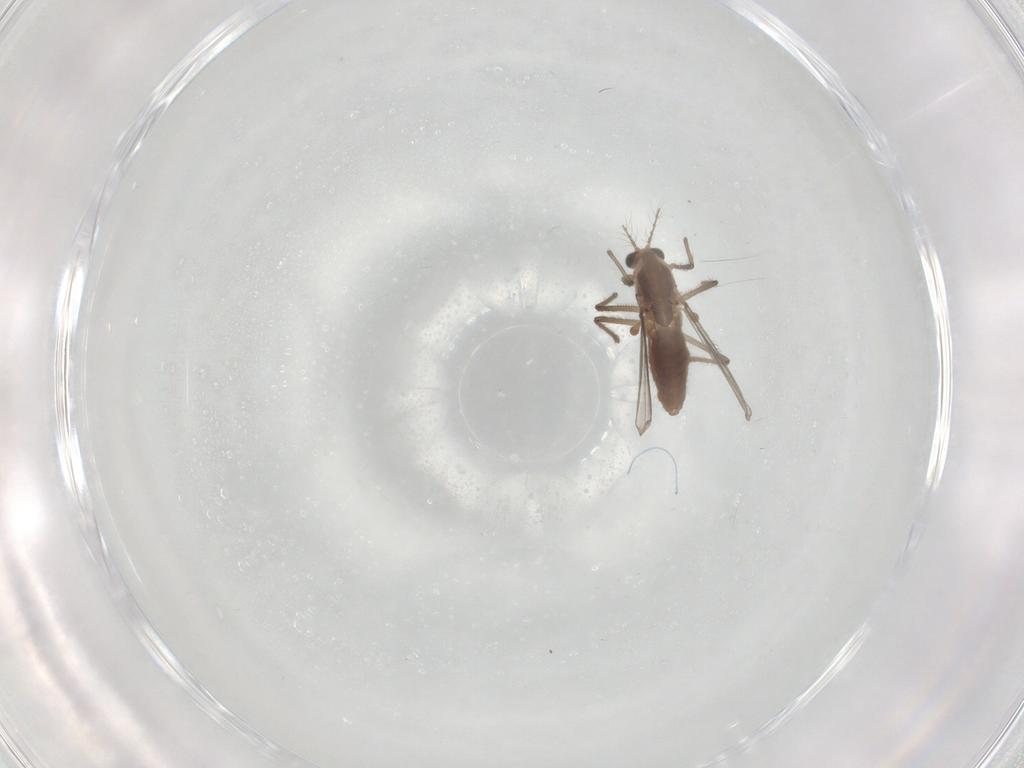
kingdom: Animalia
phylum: Arthropoda
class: Insecta
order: Diptera
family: Chironomidae
